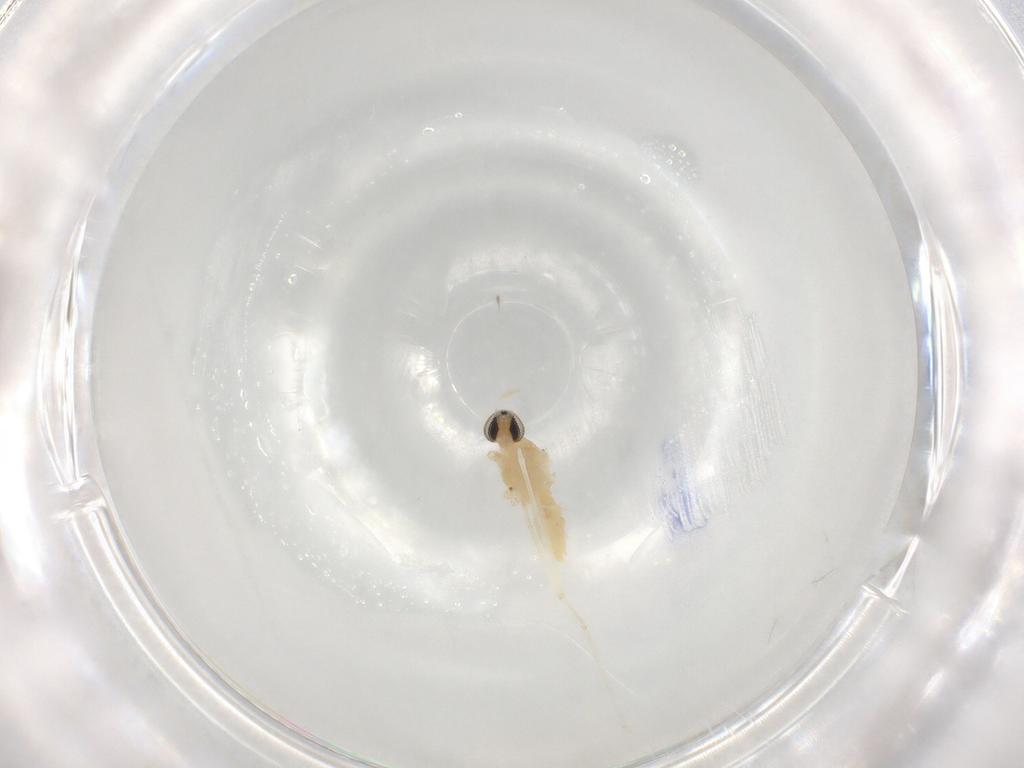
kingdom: Animalia
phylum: Arthropoda
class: Insecta
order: Diptera
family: Cecidomyiidae
